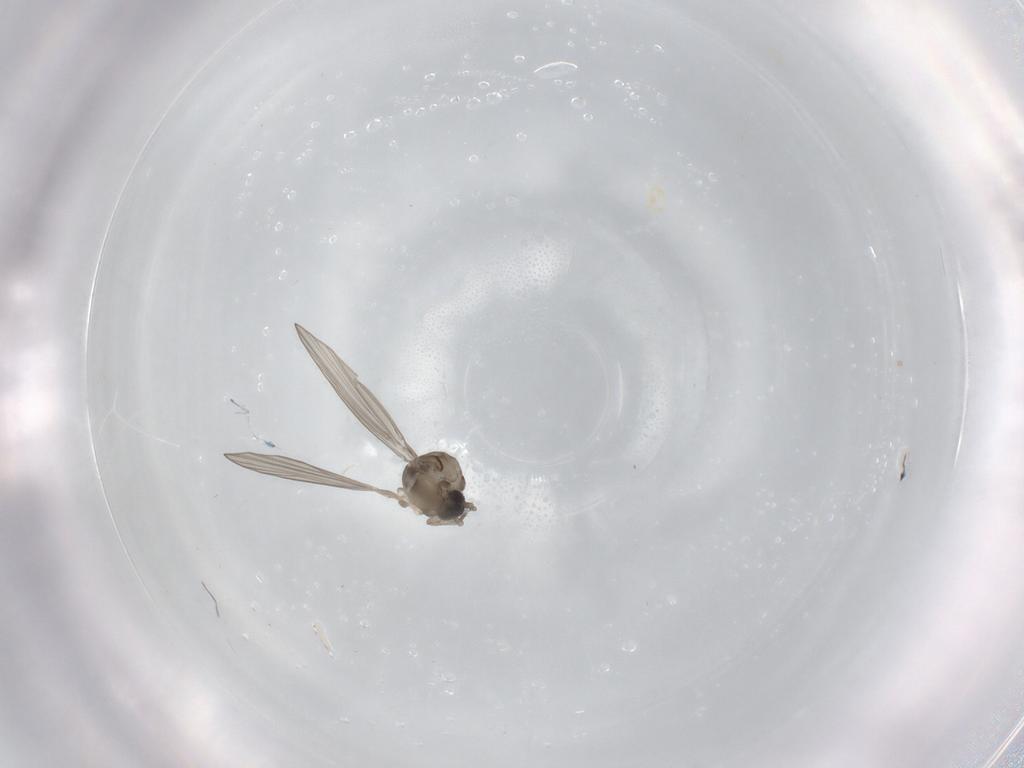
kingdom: Animalia
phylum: Arthropoda
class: Insecta
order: Diptera
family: Psychodidae
